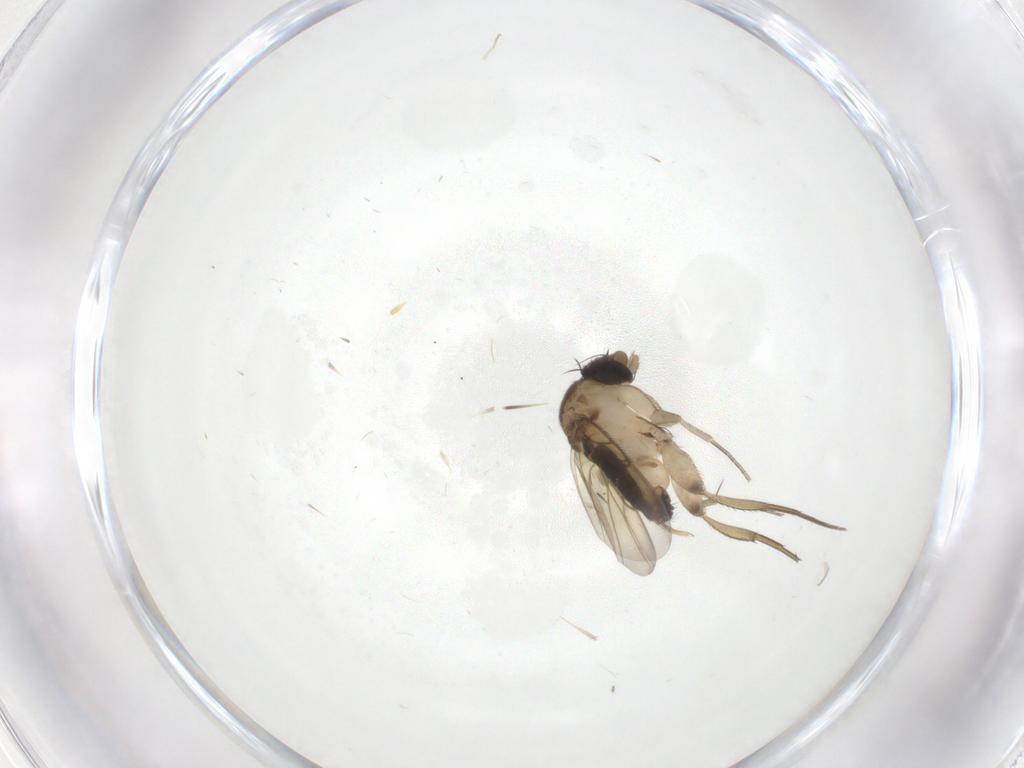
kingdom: Animalia
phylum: Arthropoda
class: Insecta
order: Diptera
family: Phoridae
